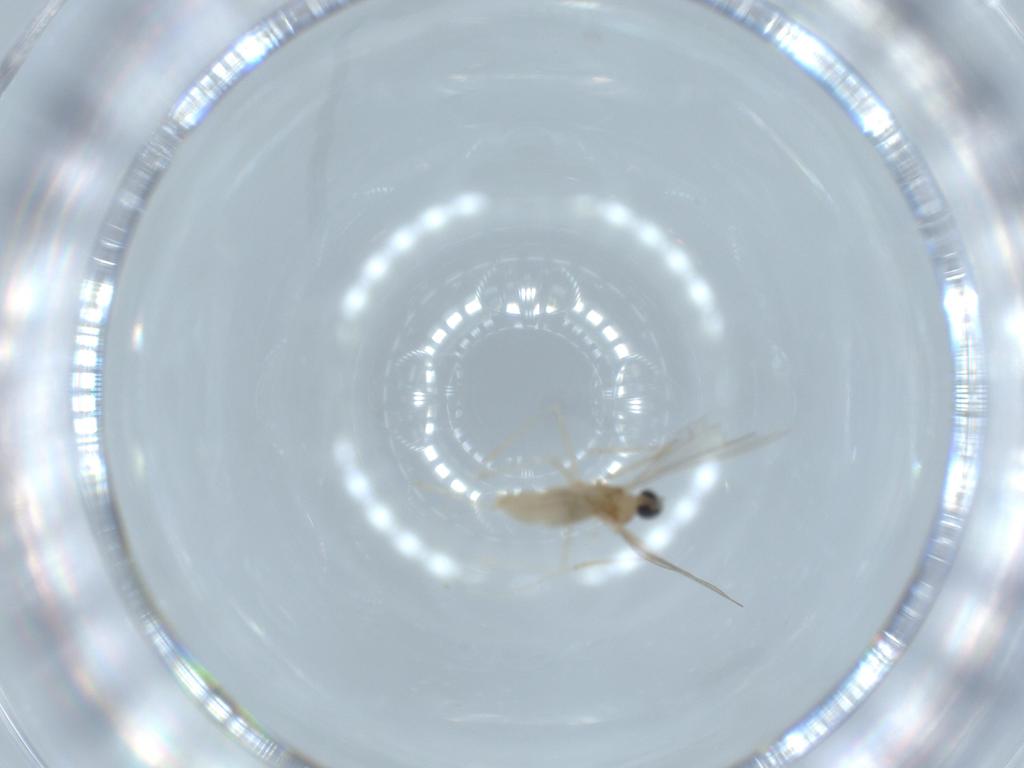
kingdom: Animalia
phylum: Arthropoda
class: Insecta
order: Diptera
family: Cecidomyiidae
